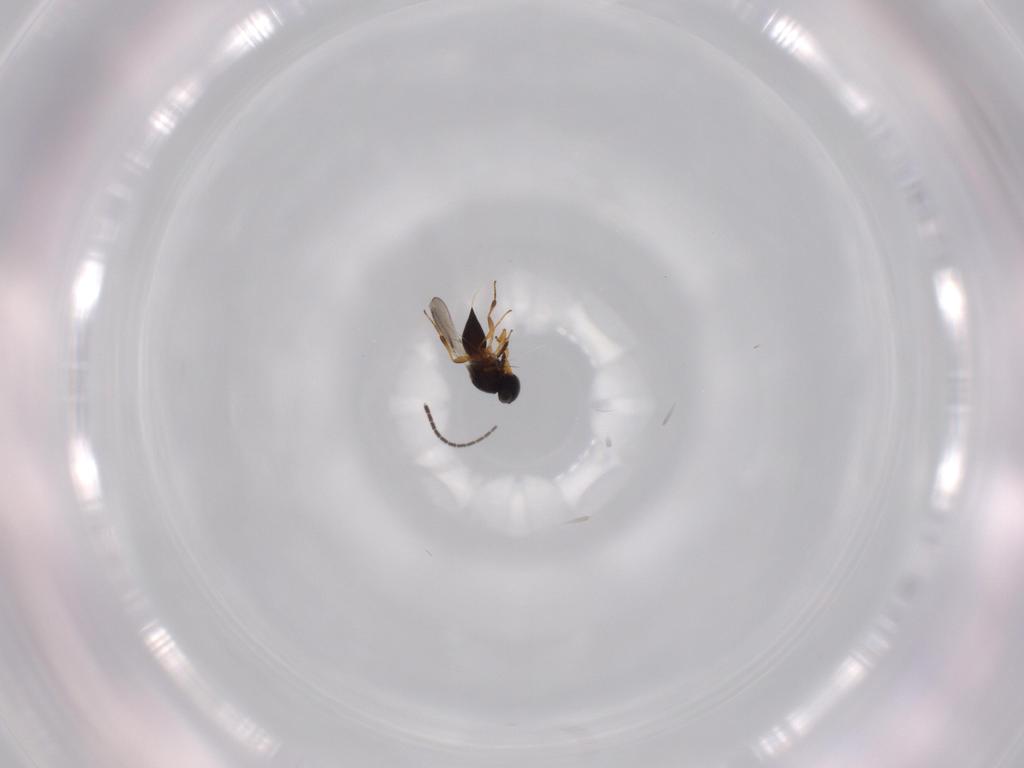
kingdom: Animalia
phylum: Arthropoda
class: Insecta
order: Hymenoptera
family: Platygastridae
